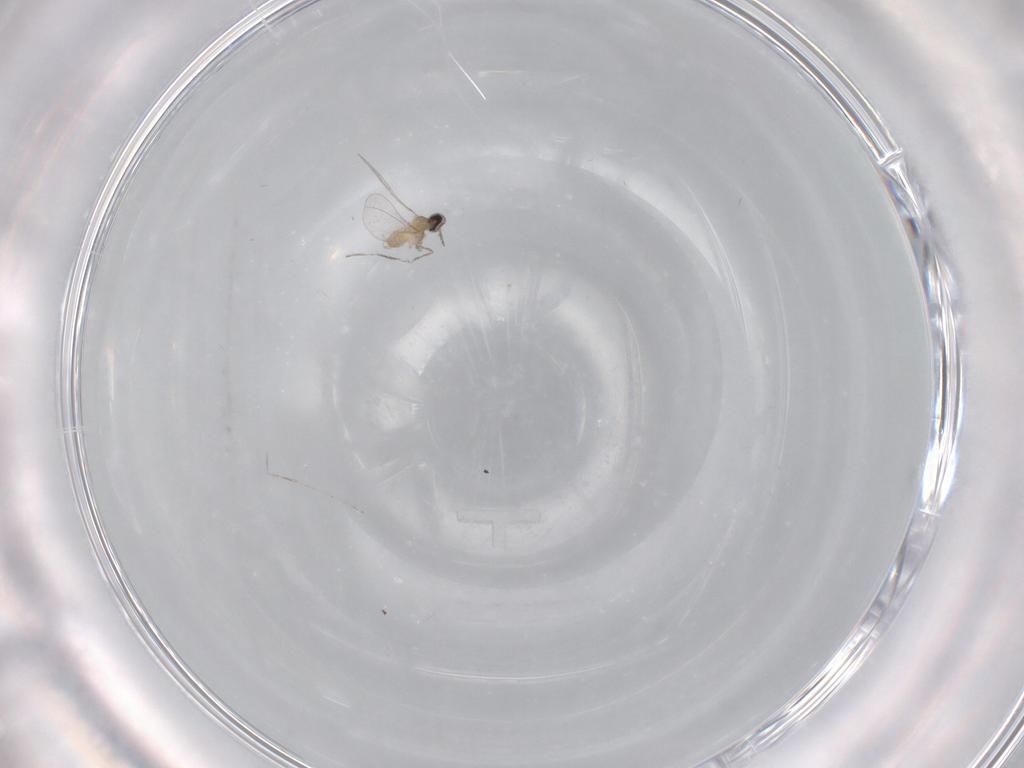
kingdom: Animalia
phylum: Arthropoda
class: Insecta
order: Diptera
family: Cecidomyiidae
